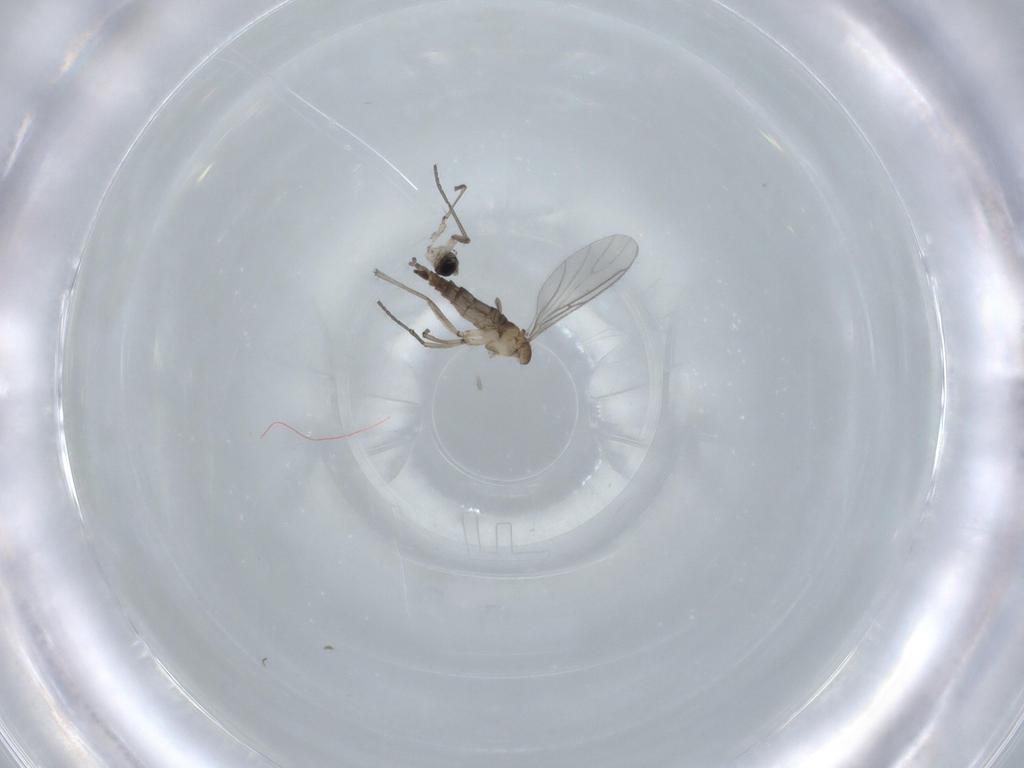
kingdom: Animalia
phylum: Arthropoda
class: Insecta
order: Diptera
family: Sciaridae
